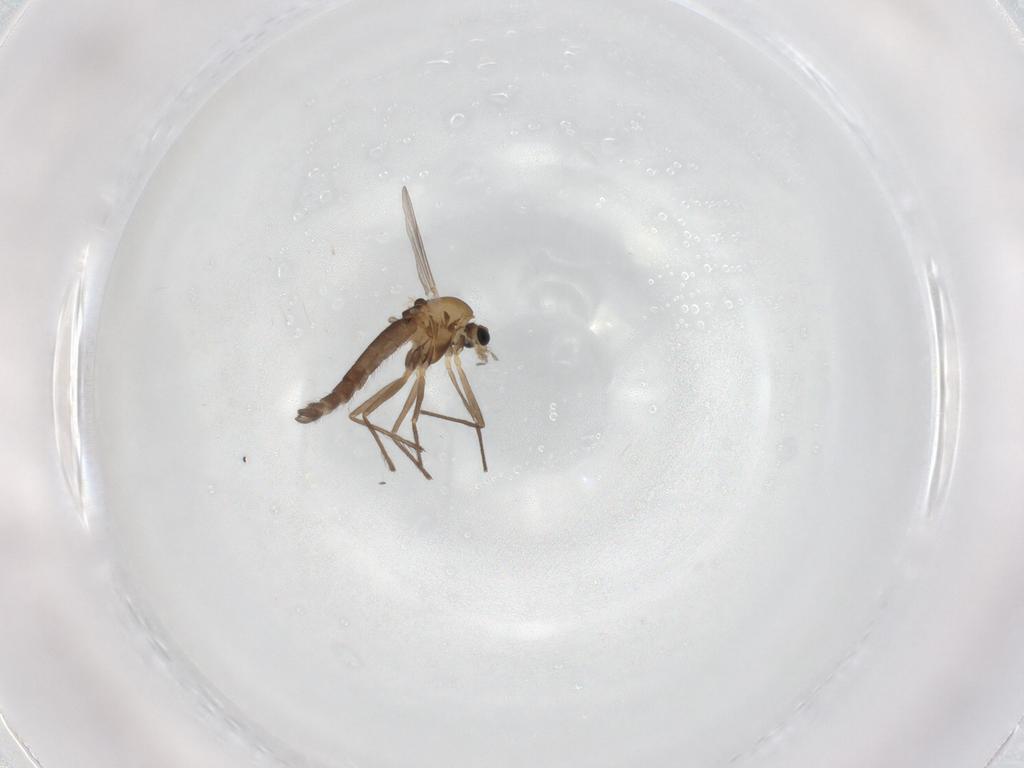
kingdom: Animalia
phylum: Arthropoda
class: Insecta
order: Diptera
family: Chironomidae
